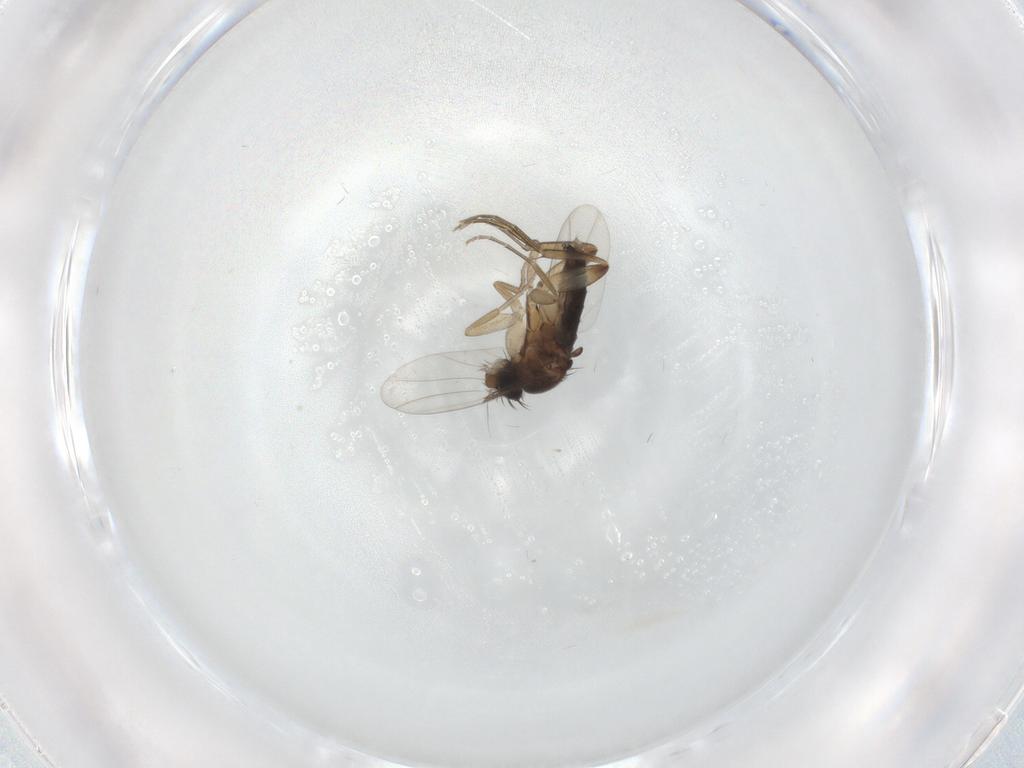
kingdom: Animalia
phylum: Arthropoda
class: Insecta
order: Diptera
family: Phoridae
